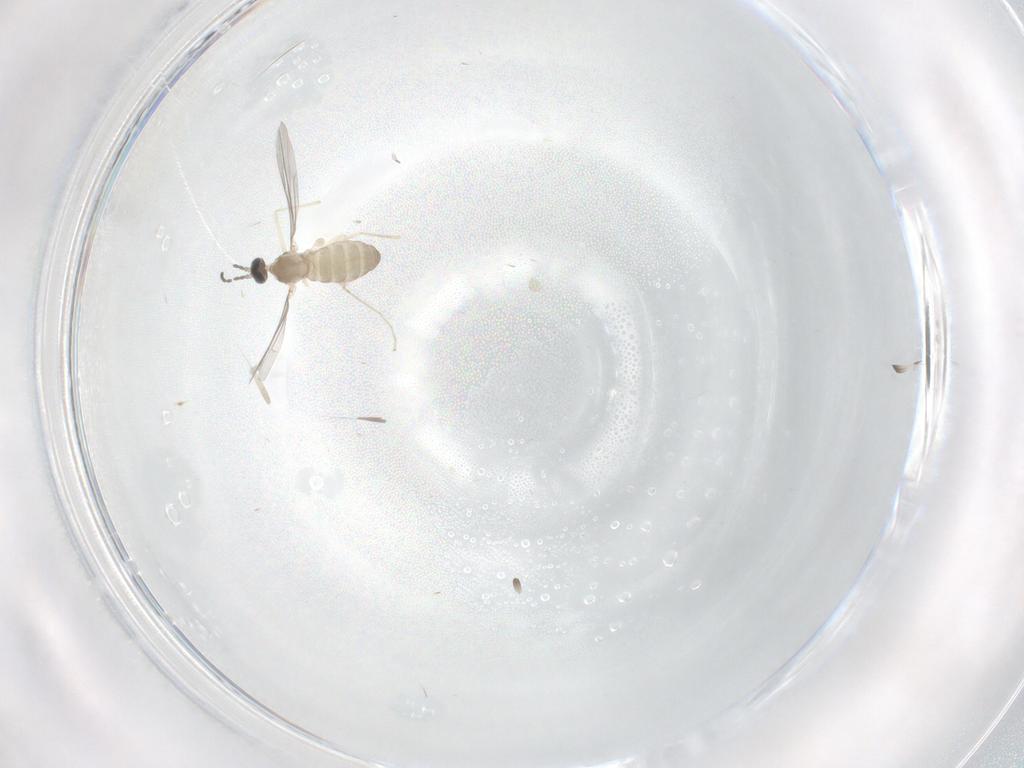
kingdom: Animalia
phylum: Arthropoda
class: Insecta
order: Diptera
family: Cecidomyiidae
